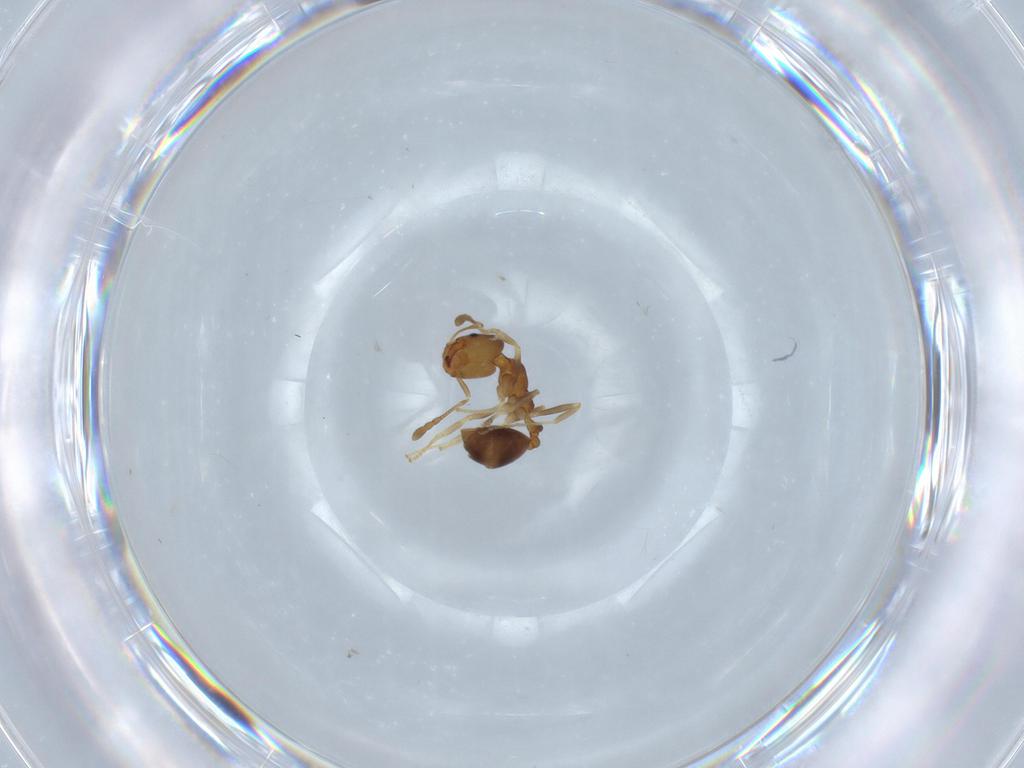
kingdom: Animalia
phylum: Arthropoda
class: Insecta
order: Hymenoptera
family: Formicidae
